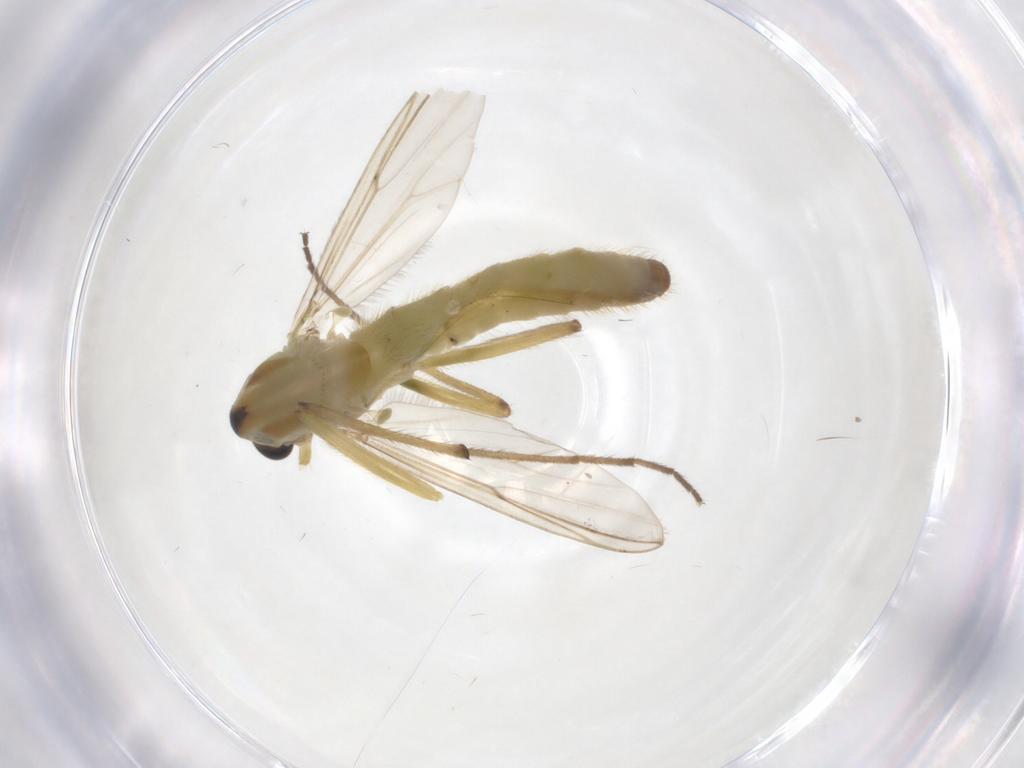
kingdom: Animalia
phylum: Arthropoda
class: Insecta
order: Diptera
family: Chironomidae
